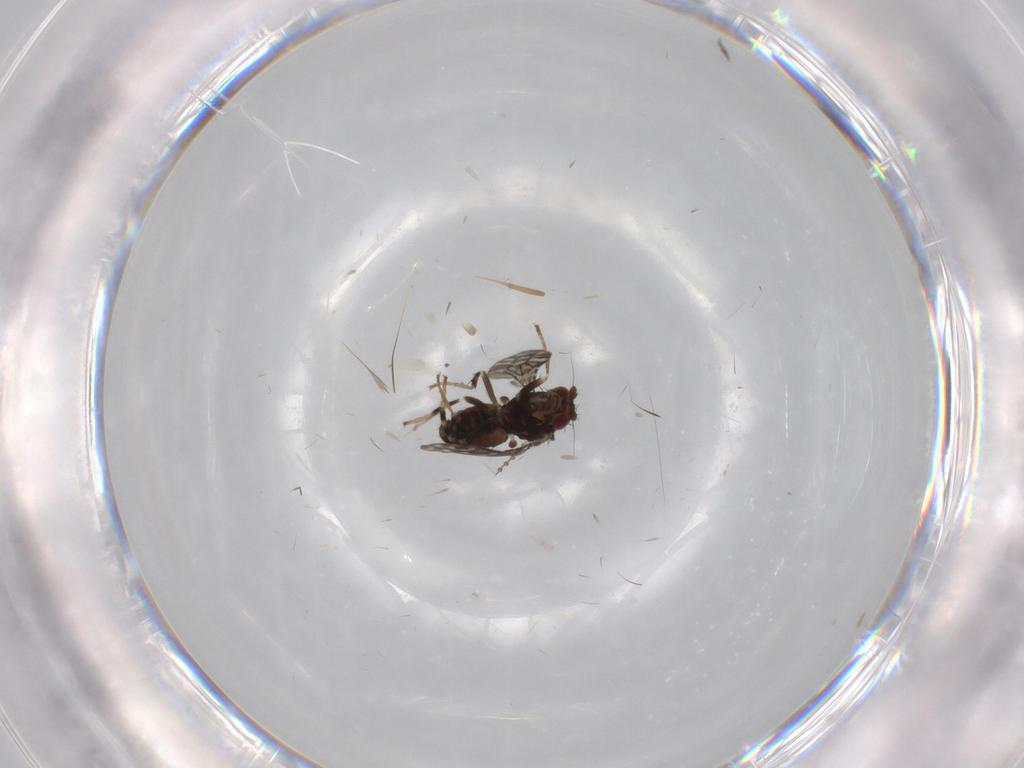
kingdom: Animalia
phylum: Arthropoda
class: Insecta
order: Diptera
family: Sphaeroceridae
